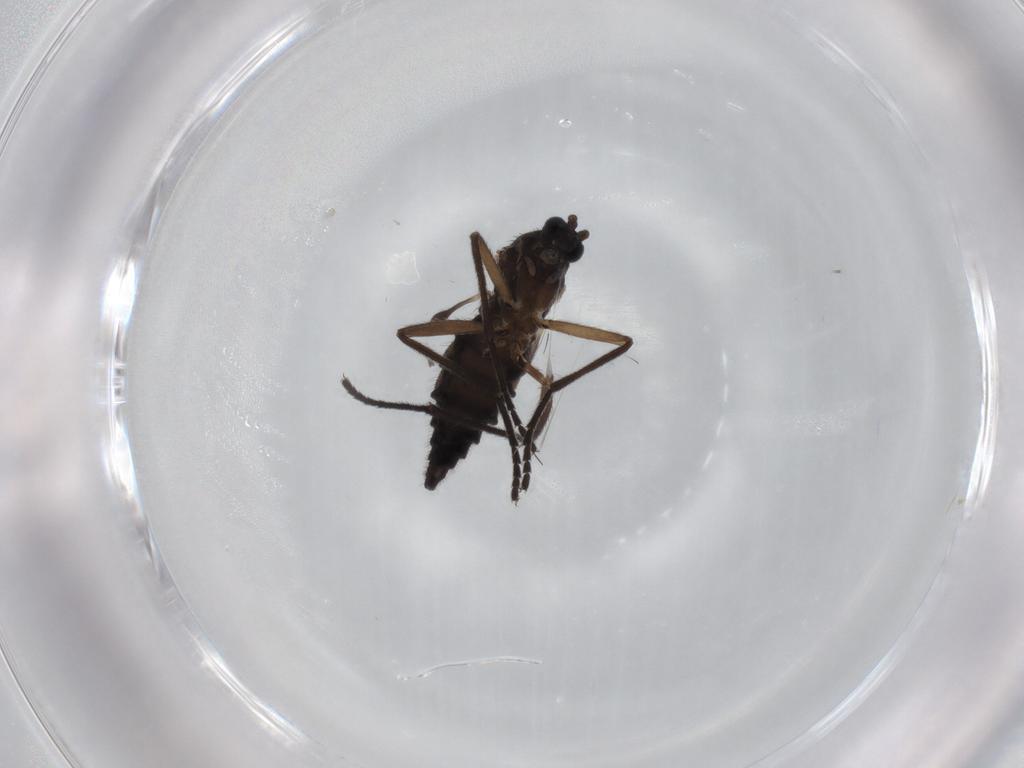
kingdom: Animalia
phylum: Arthropoda
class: Insecta
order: Diptera
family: Sciaridae
